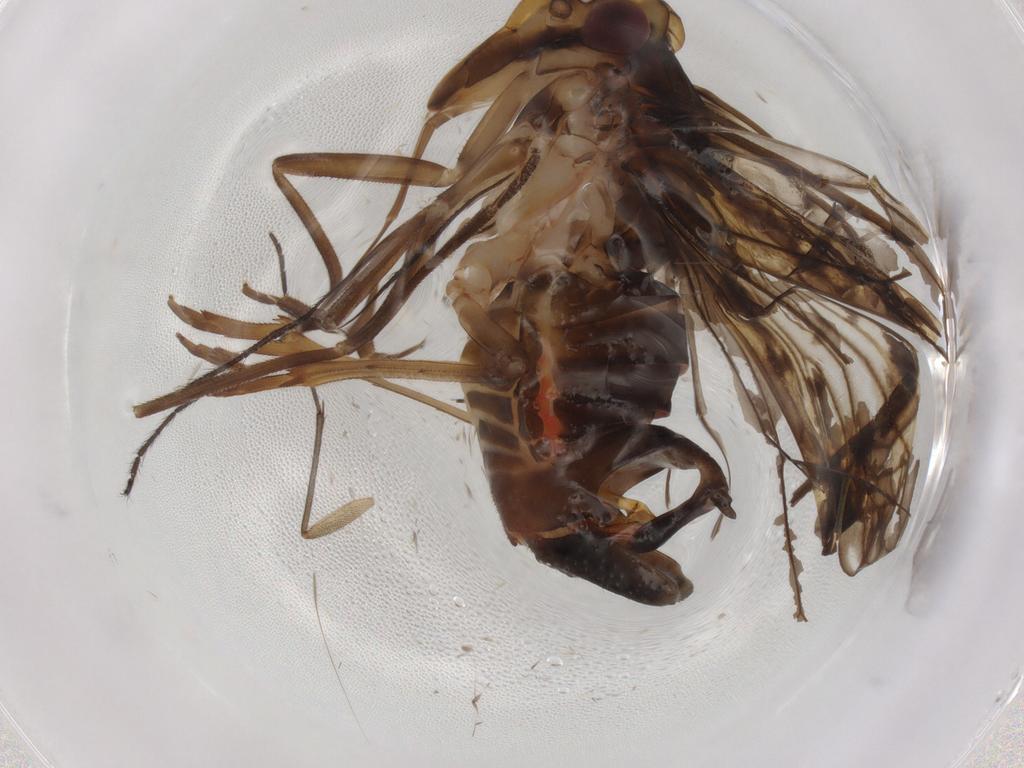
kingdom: Animalia
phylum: Arthropoda
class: Insecta
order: Hemiptera
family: Cixiidae
